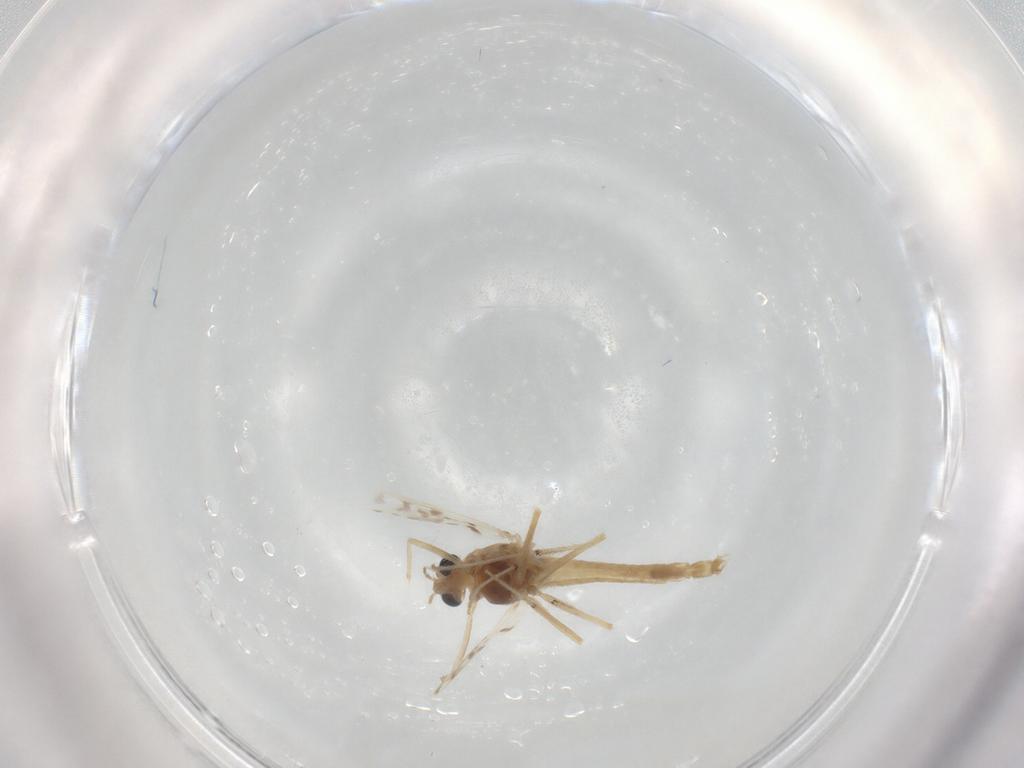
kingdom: Animalia
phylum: Arthropoda
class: Insecta
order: Diptera
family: Chironomidae
